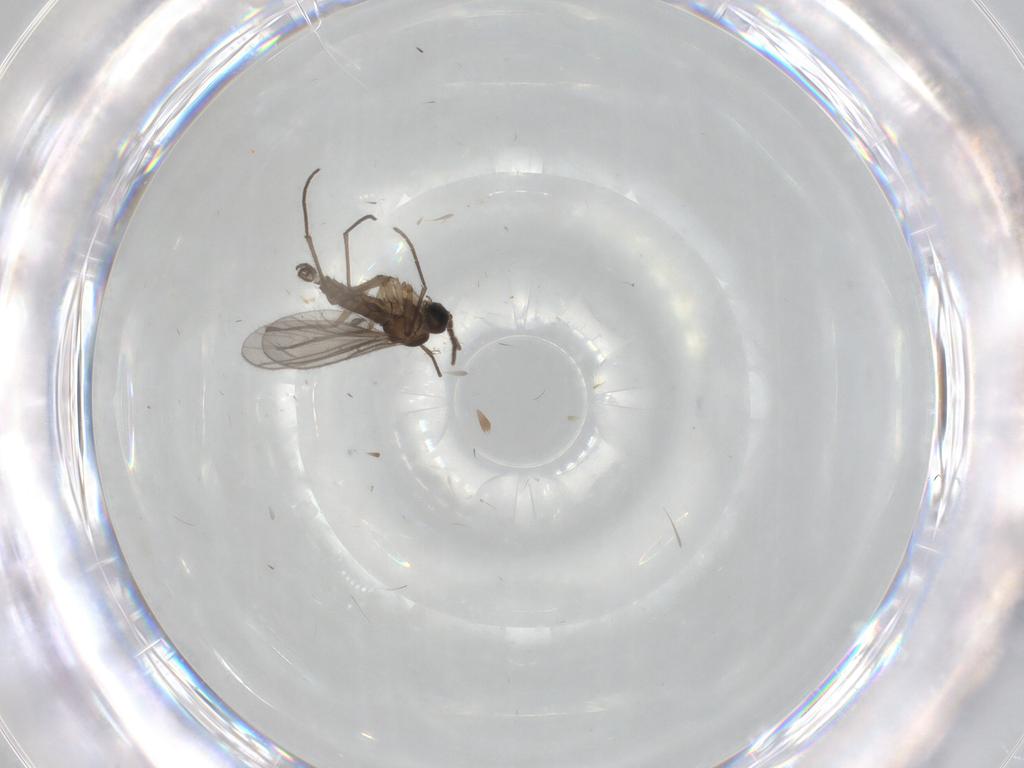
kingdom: Animalia
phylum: Arthropoda
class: Insecta
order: Diptera
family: Sciaridae
